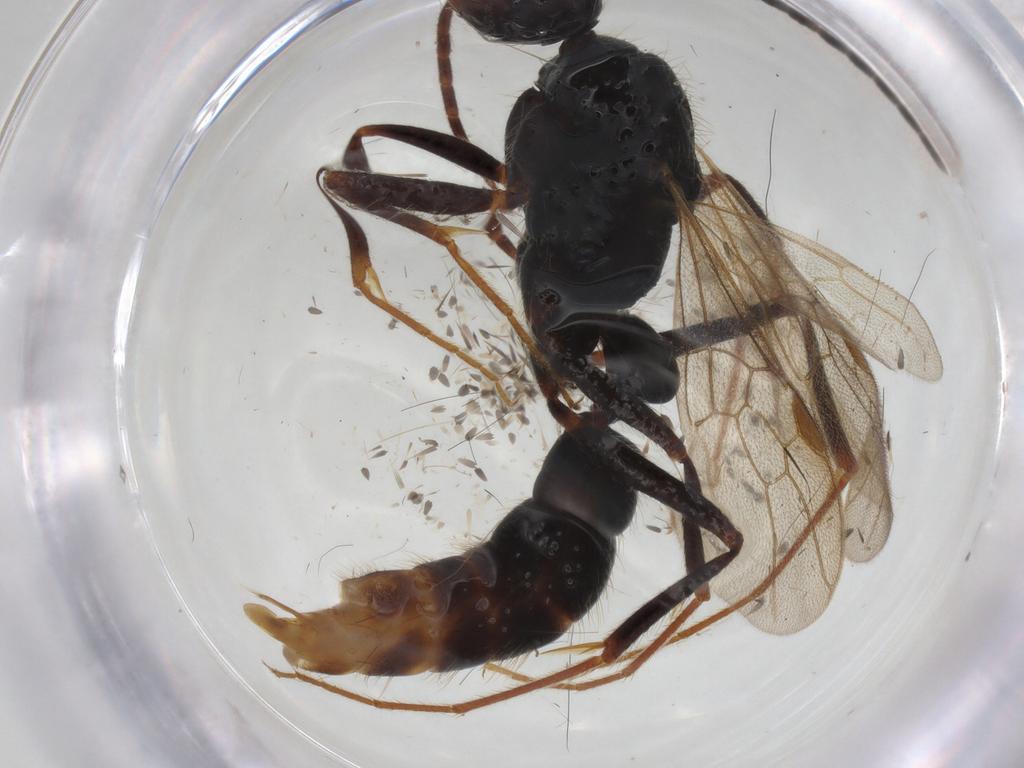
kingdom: Animalia
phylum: Arthropoda
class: Insecta
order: Hymenoptera
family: Formicidae
